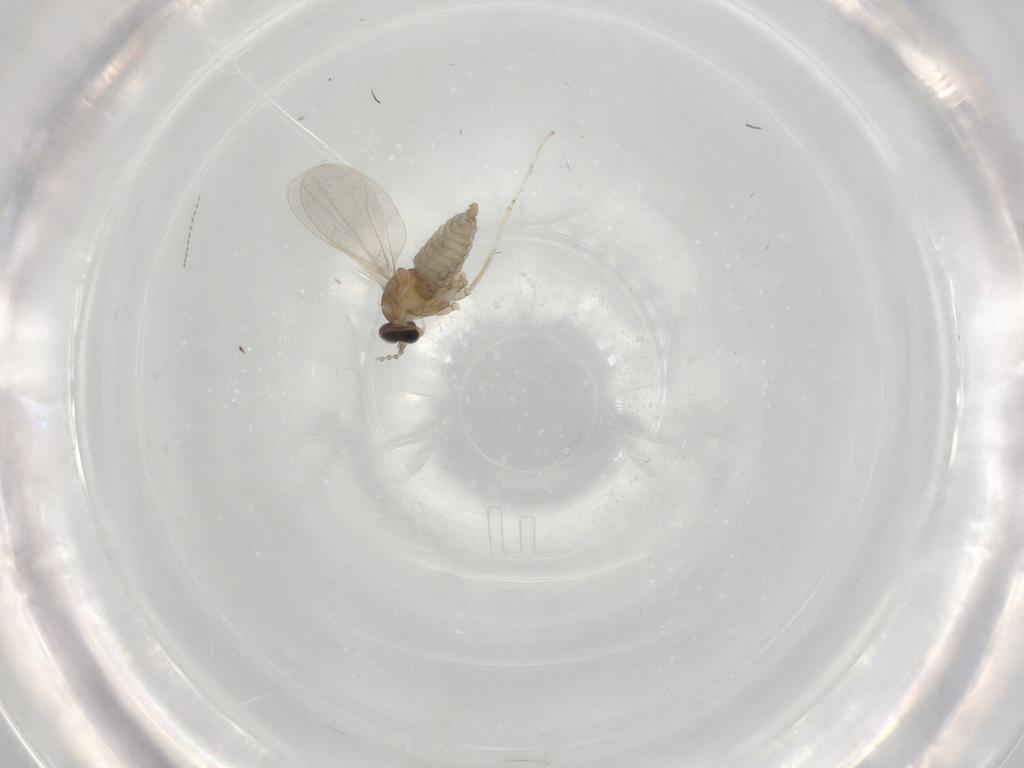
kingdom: Animalia
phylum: Arthropoda
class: Insecta
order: Diptera
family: Cecidomyiidae
